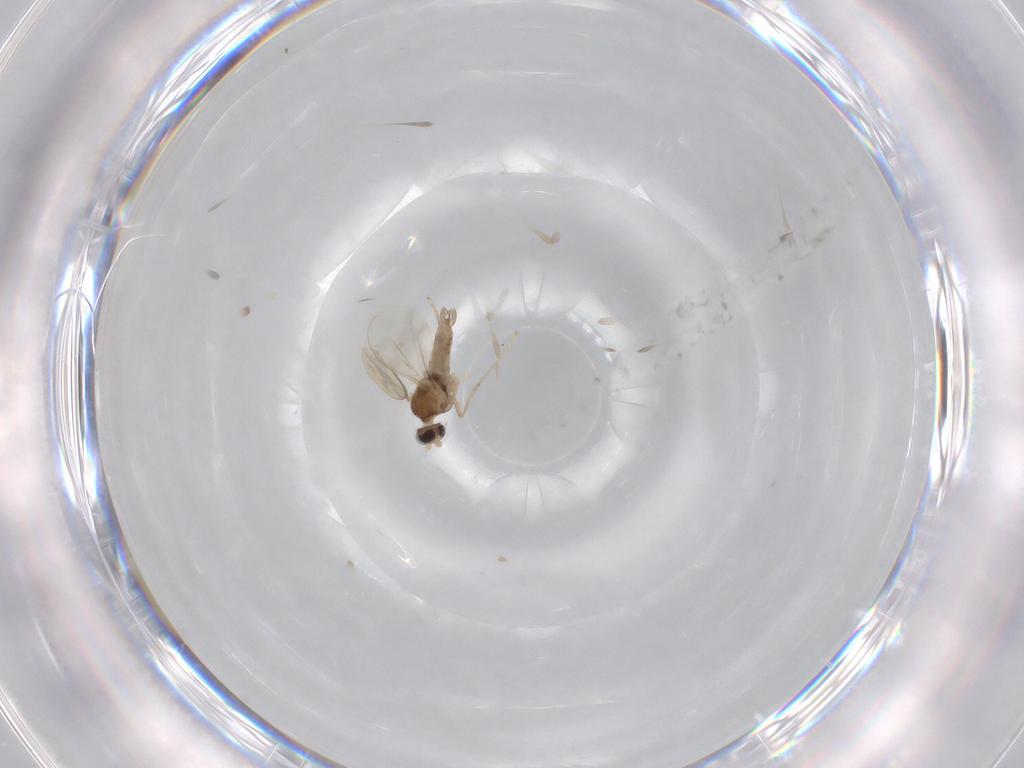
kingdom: Animalia
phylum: Arthropoda
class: Insecta
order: Diptera
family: Cecidomyiidae
